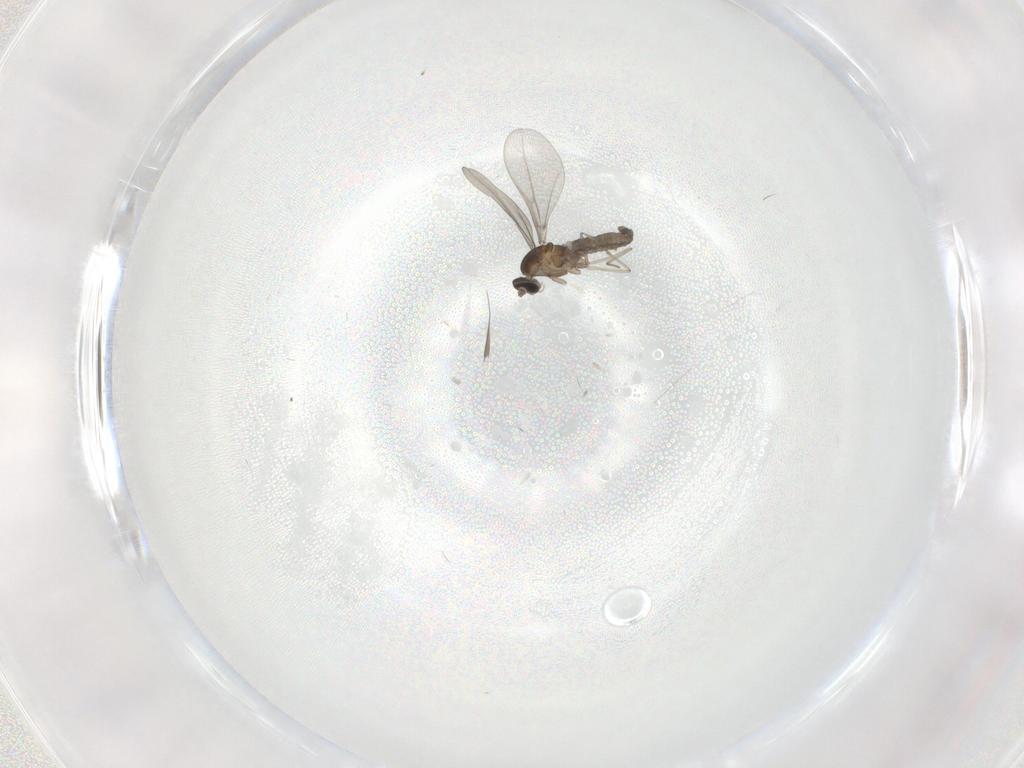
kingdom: Animalia
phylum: Arthropoda
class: Insecta
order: Diptera
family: Cecidomyiidae
